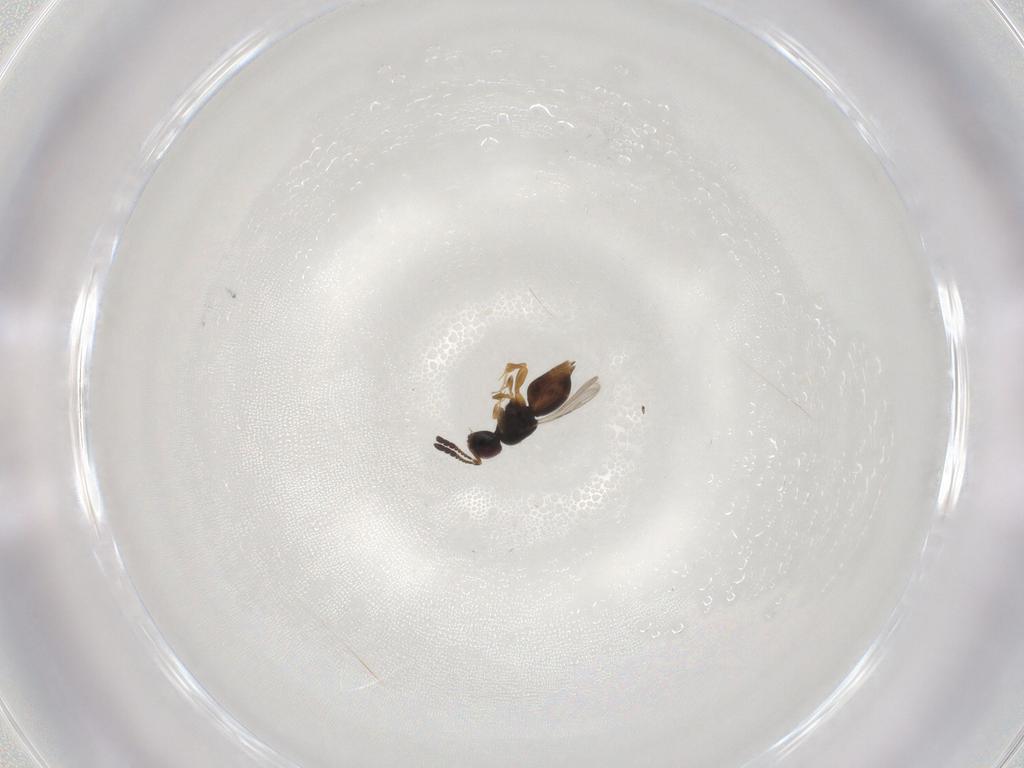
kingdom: Animalia
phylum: Arthropoda
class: Insecta
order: Hymenoptera
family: Ceraphronidae
